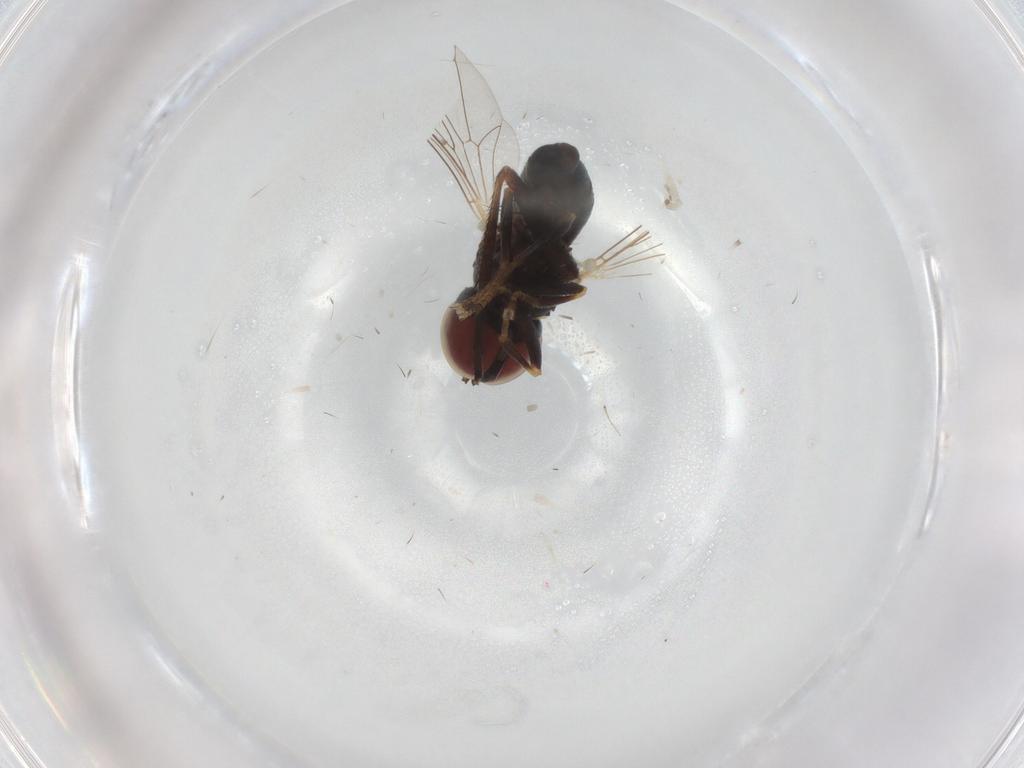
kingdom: Animalia
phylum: Arthropoda
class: Insecta
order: Diptera
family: Pipunculidae
